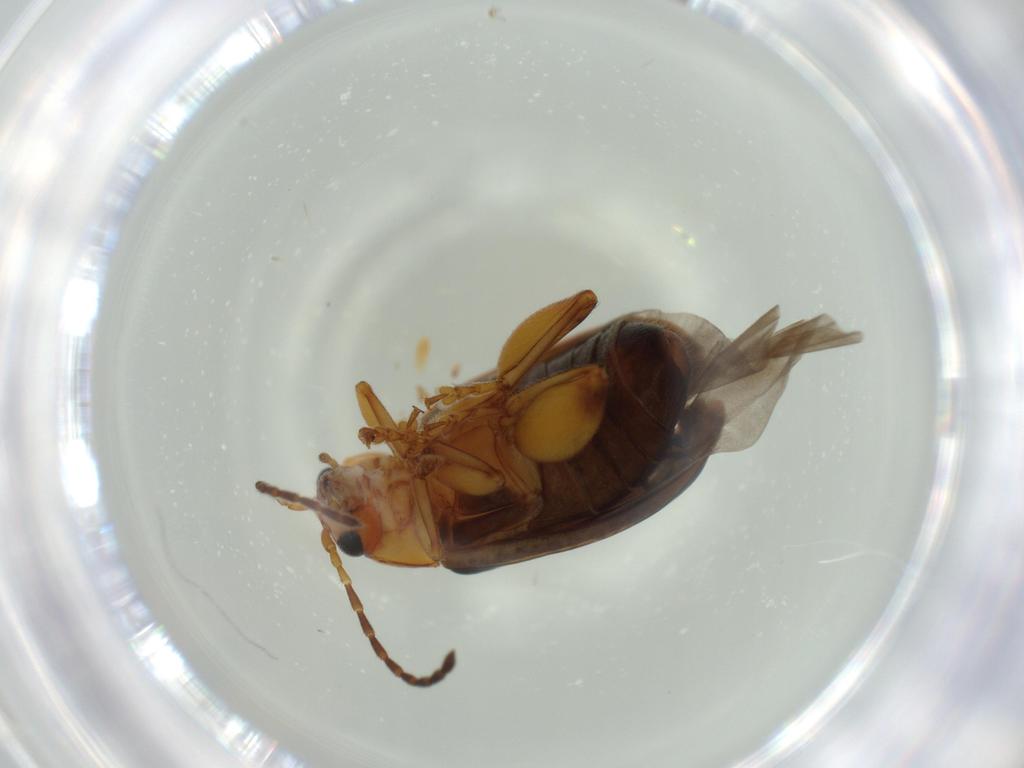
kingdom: Animalia
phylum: Arthropoda
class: Insecta
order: Coleoptera
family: Chrysomelidae
